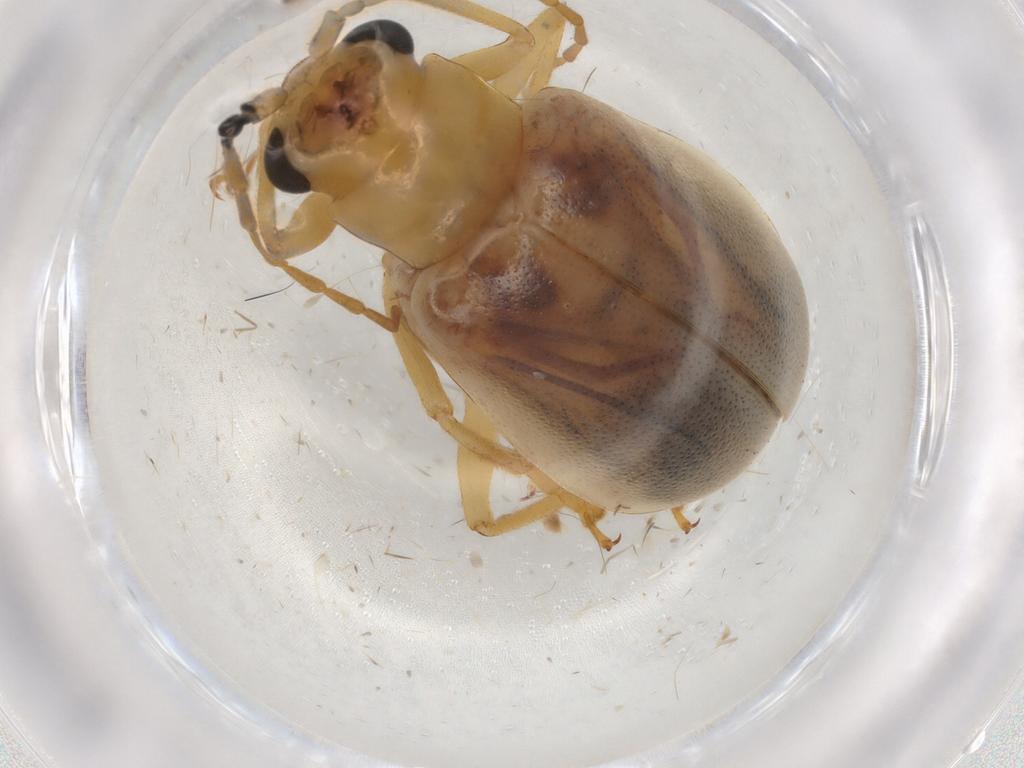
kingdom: Animalia
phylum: Arthropoda
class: Insecta
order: Coleoptera
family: Chrysomelidae
